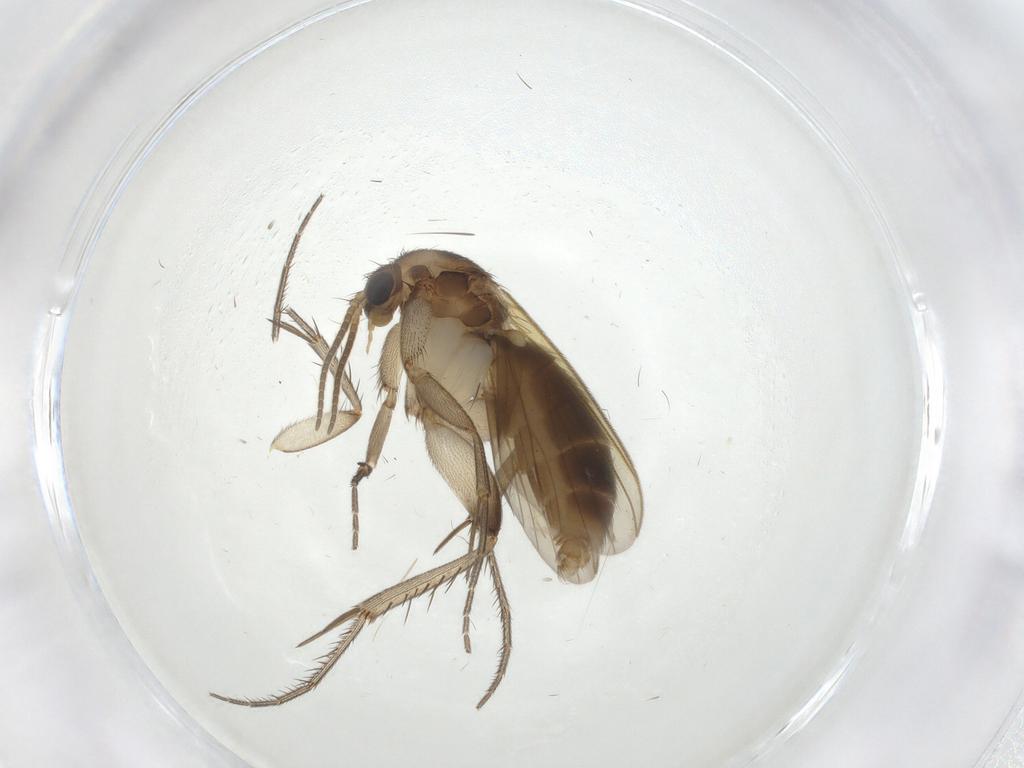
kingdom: Animalia
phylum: Arthropoda
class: Insecta
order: Diptera
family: Mycetophilidae
